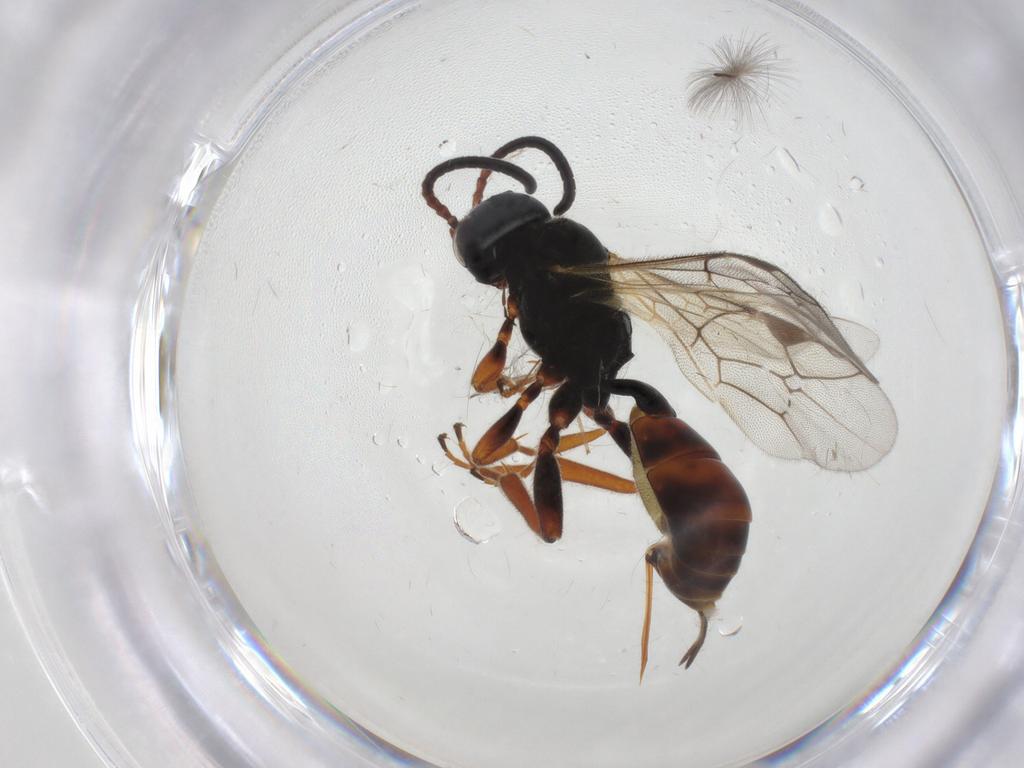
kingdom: Animalia
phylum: Arthropoda
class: Insecta
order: Hymenoptera
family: Ichneumonidae
